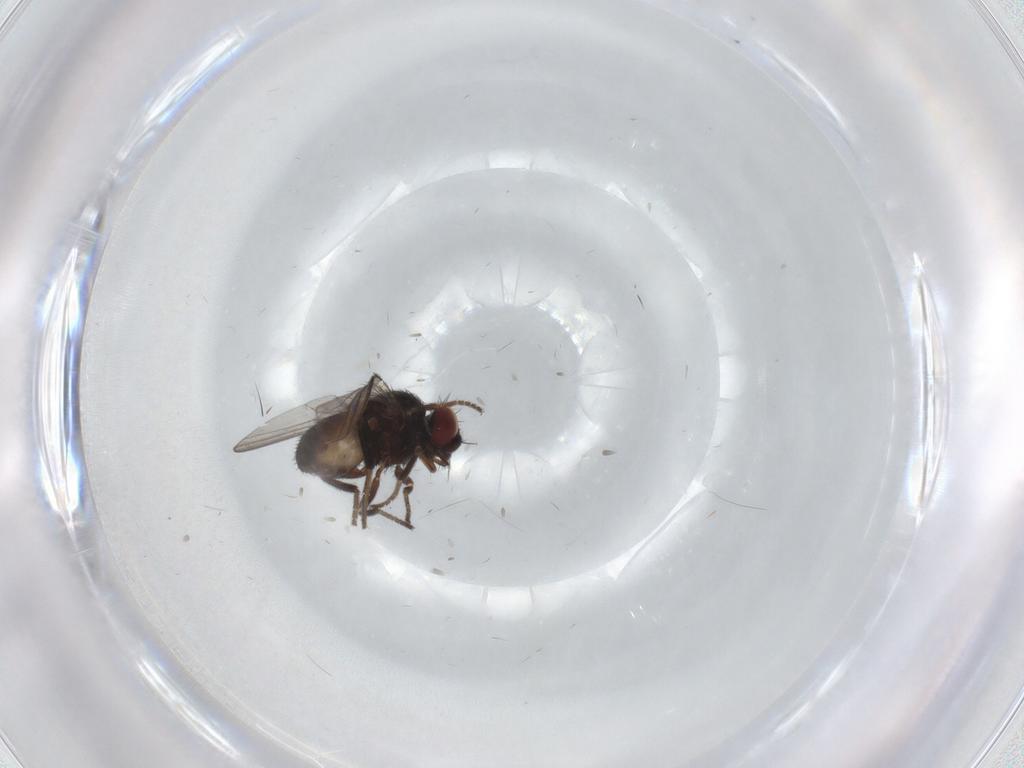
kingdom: Animalia
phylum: Arthropoda
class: Insecta
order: Diptera
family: Milichiidae
